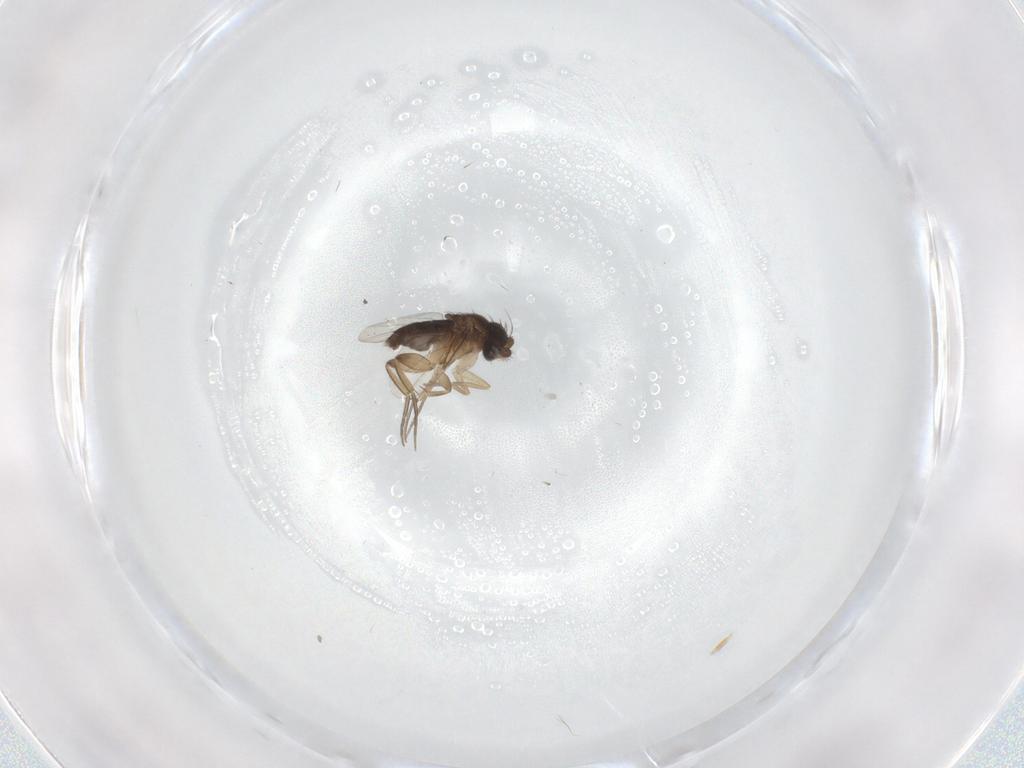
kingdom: Animalia
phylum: Arthropoda
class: Insecta
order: Diptera
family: Phoridae
